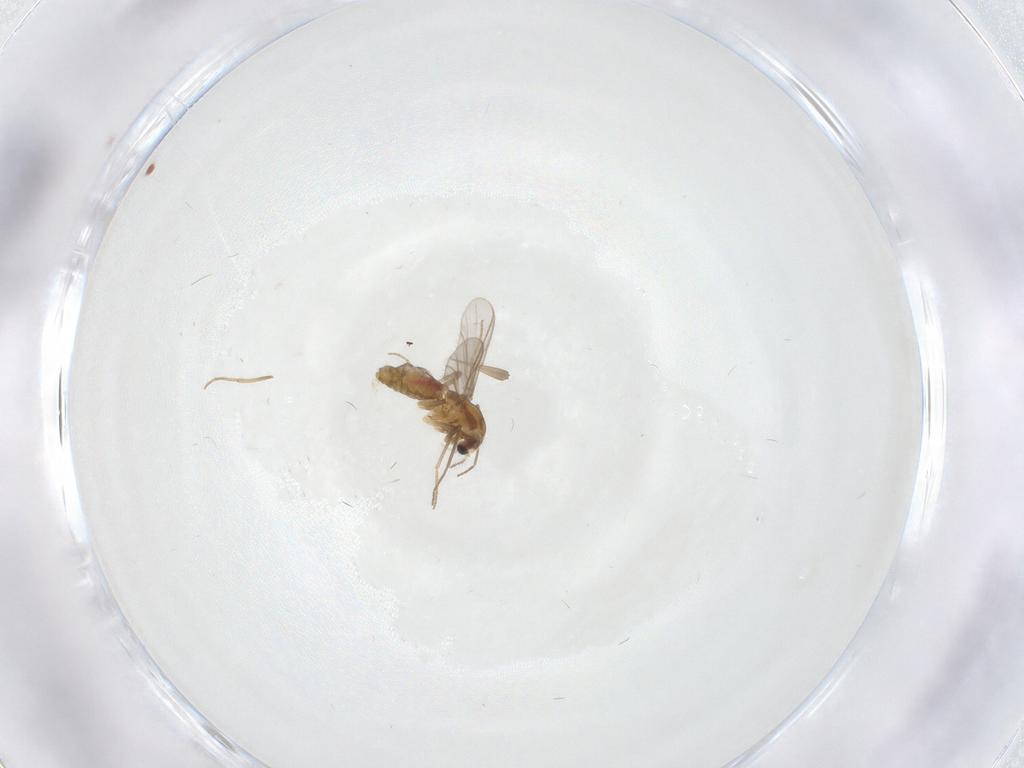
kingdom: Animalia
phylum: Arthropoda
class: Insecta
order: Diptera
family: Chironomidae
